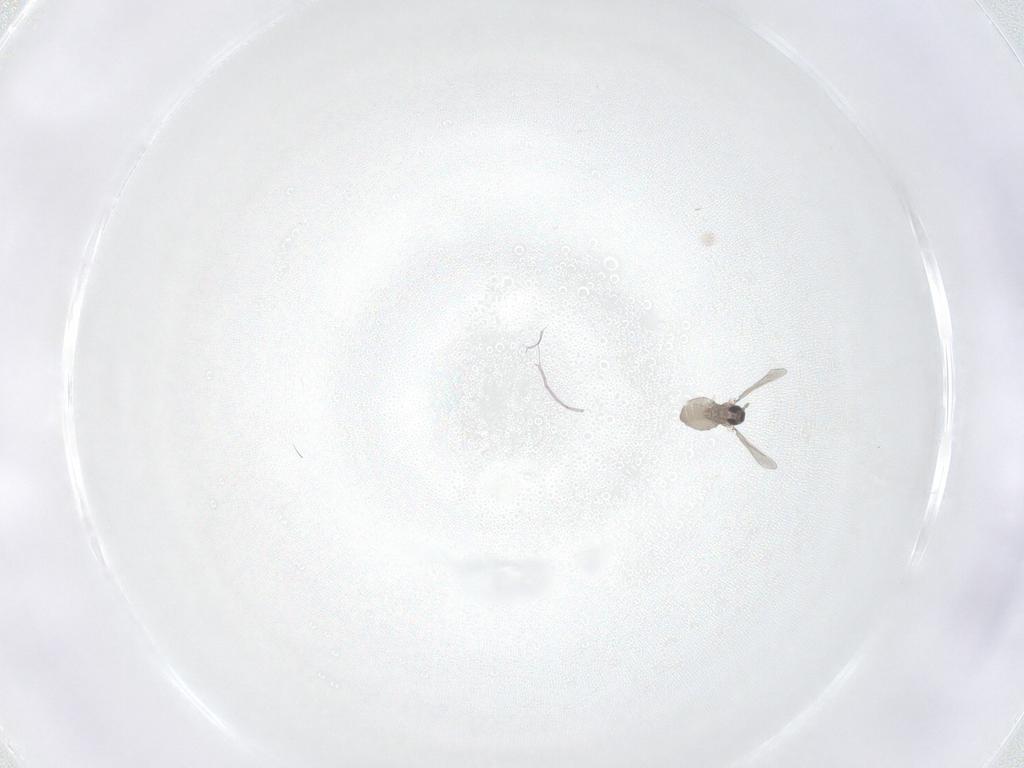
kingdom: Animalia
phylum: Arthropoda
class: Insecta
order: Diptera
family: Cecidomyiidae
